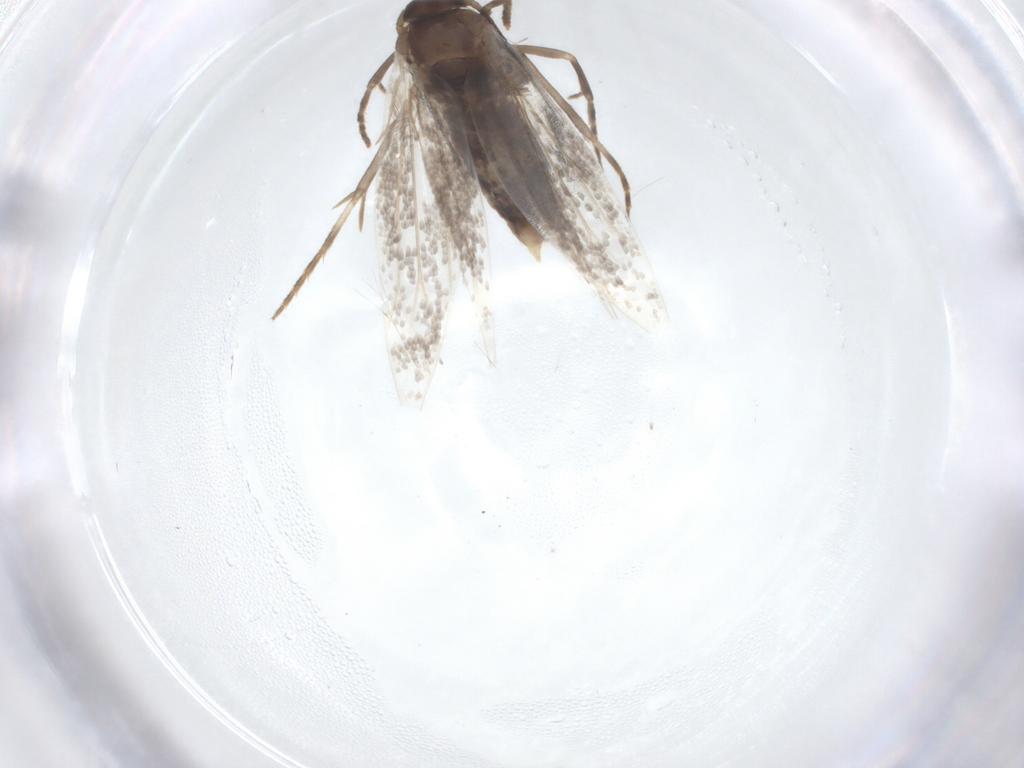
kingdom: Animalia
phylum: Arthropoda
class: Insecta
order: Lepidoptera
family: Elachistidae
